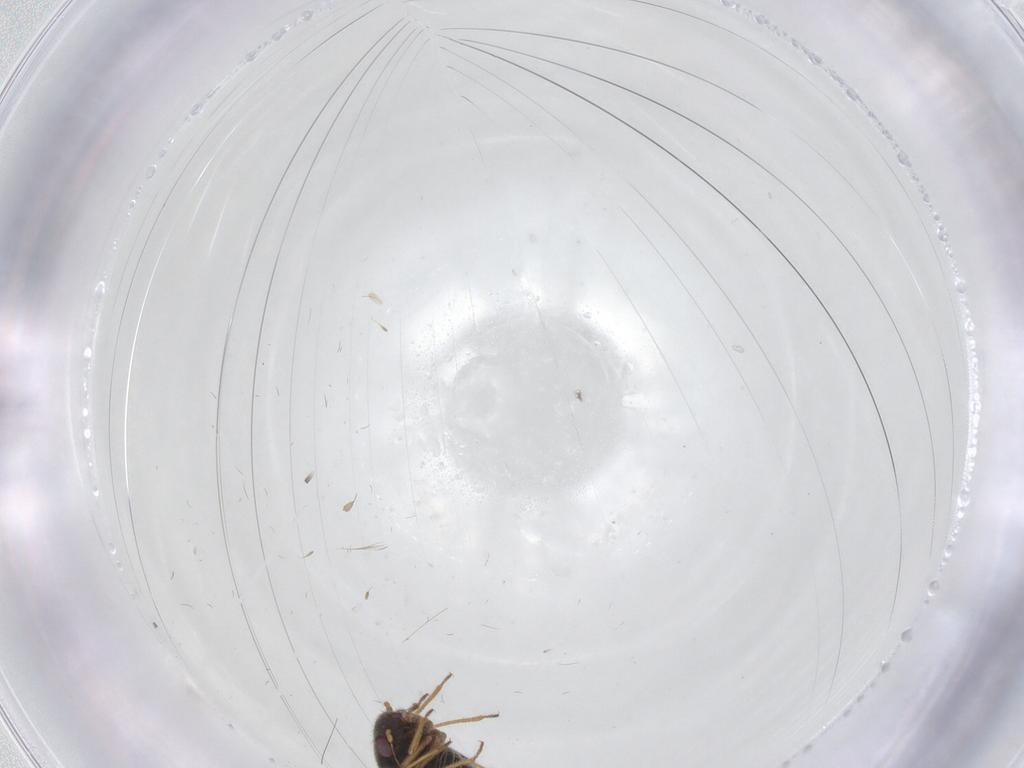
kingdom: Animalia
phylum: Arthropoda
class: Insecta
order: Hemiptera
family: Schizopteridae
